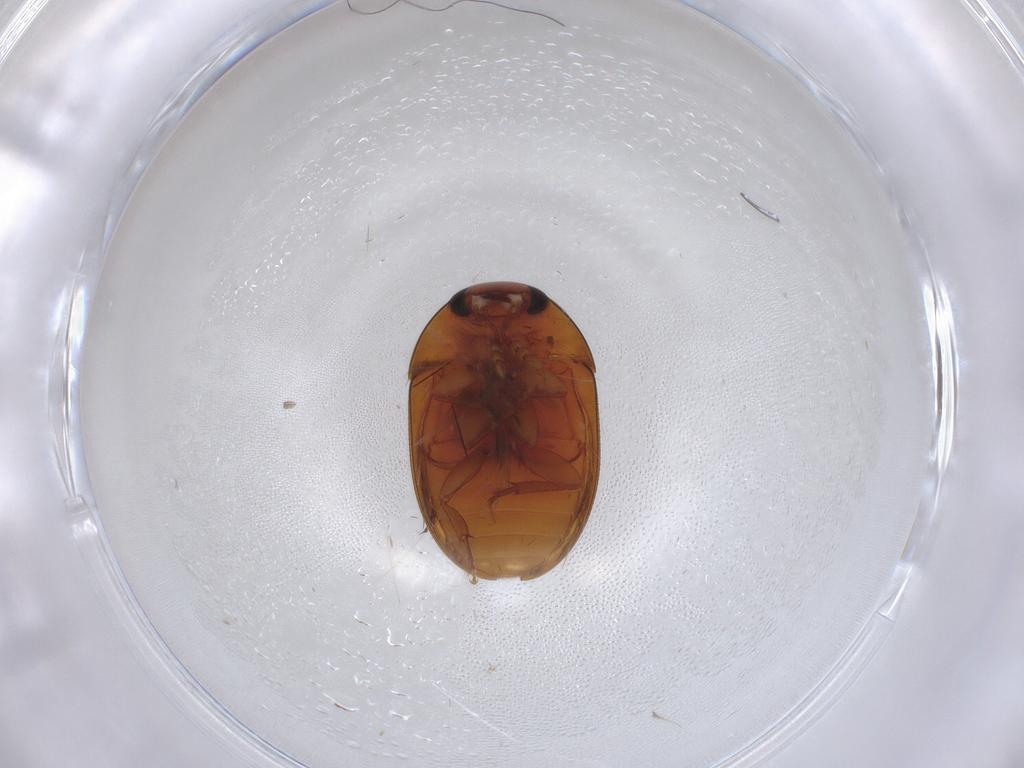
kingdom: Animalia
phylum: Arthropoda
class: Insecta
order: Coleoptera
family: Phalacridae
